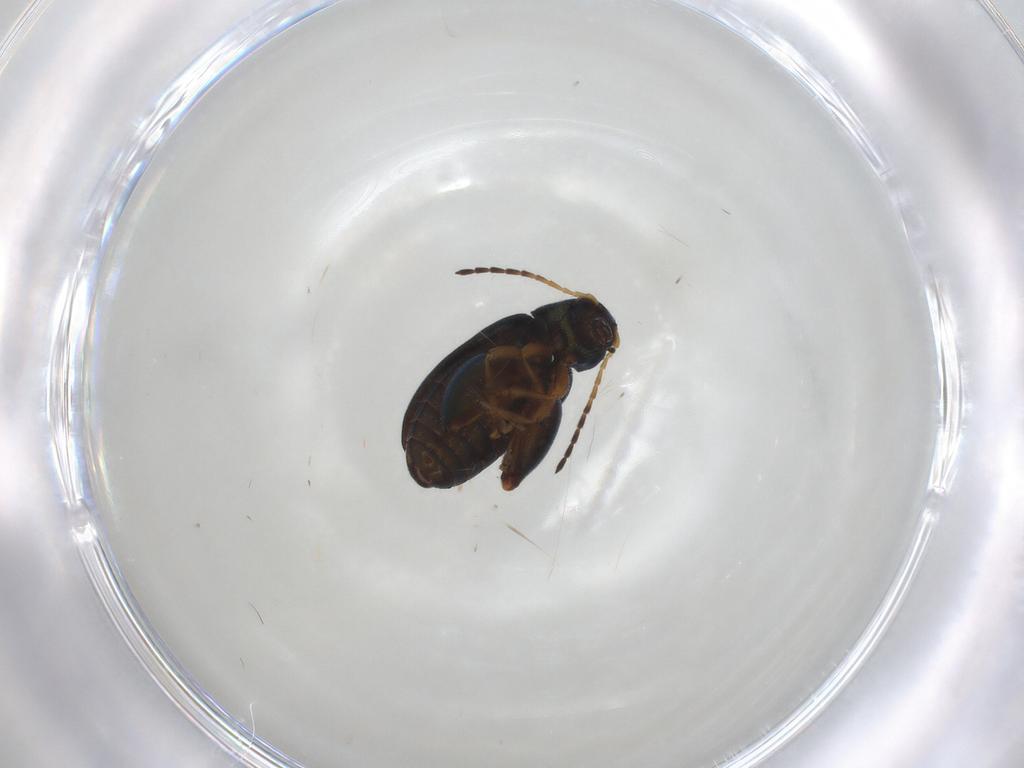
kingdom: Animalia
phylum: Arthropoda
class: Insecta
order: Coleoptera
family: Chrysomelidae
